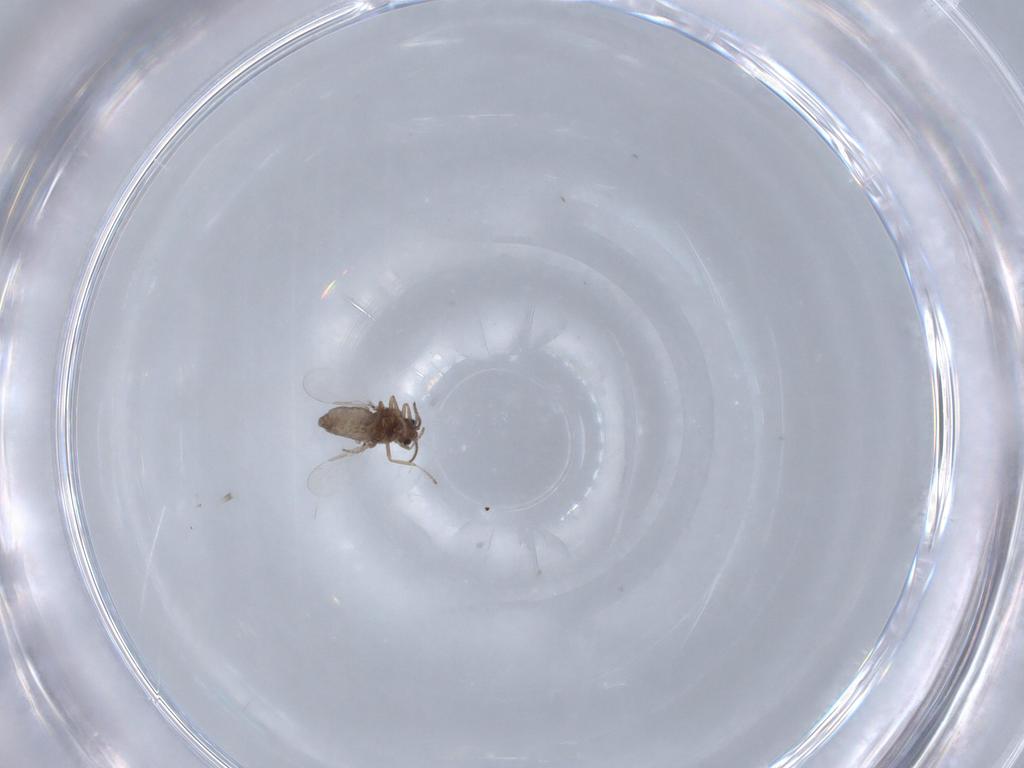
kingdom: Animalia
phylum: Arthropoda
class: Insecta
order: Diptera
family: Ceratopogonidae
